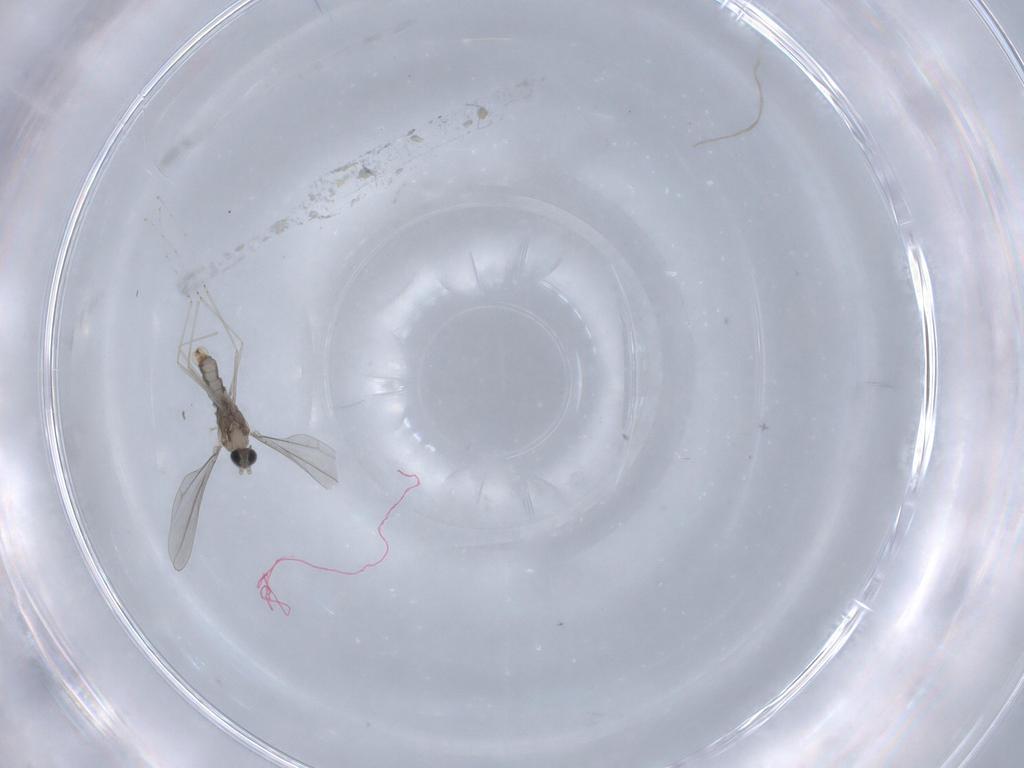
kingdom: Animalia
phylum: Arthropoda
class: Insecta
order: Diptera
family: Cecidomyiidae
